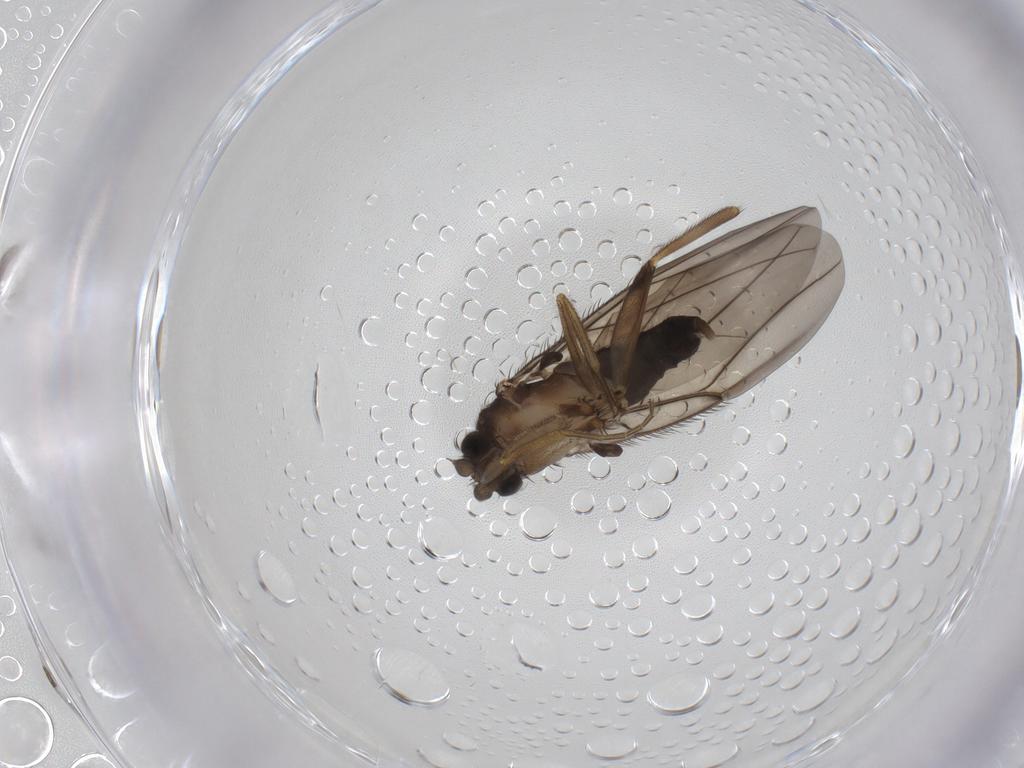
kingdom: Animalia
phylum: Arthropoda
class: Insecta
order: Diptera
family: Phoridae
